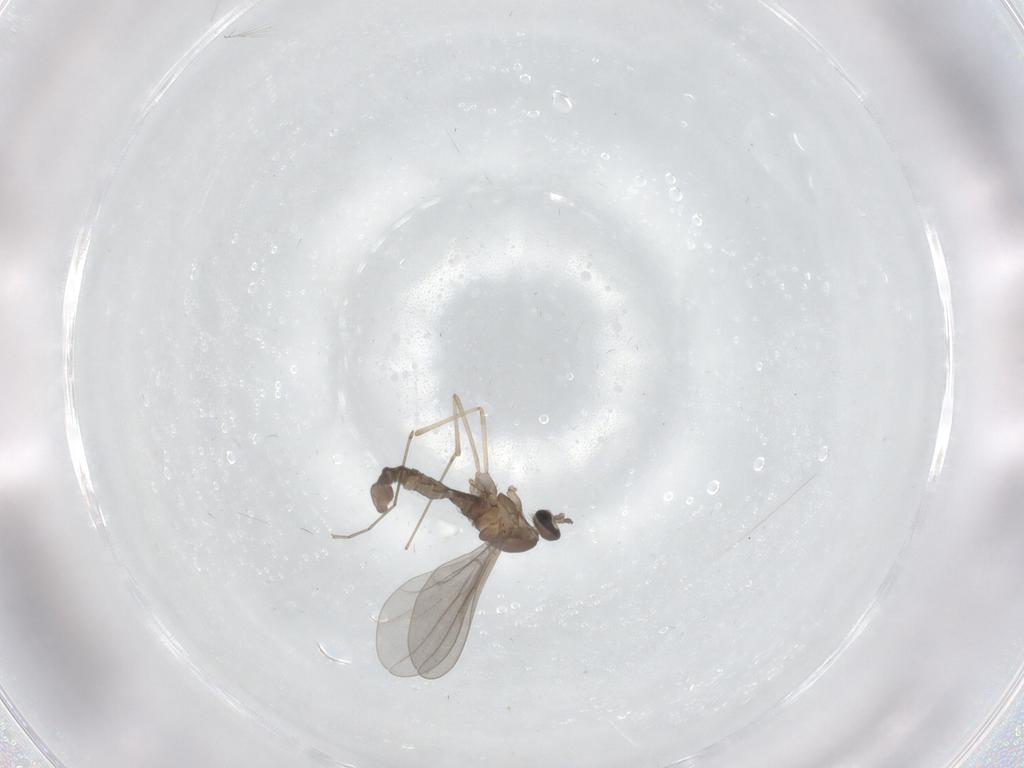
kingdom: Animalia
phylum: Arthropoda
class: Insecta
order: Diptera
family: Cecidomyiidae
